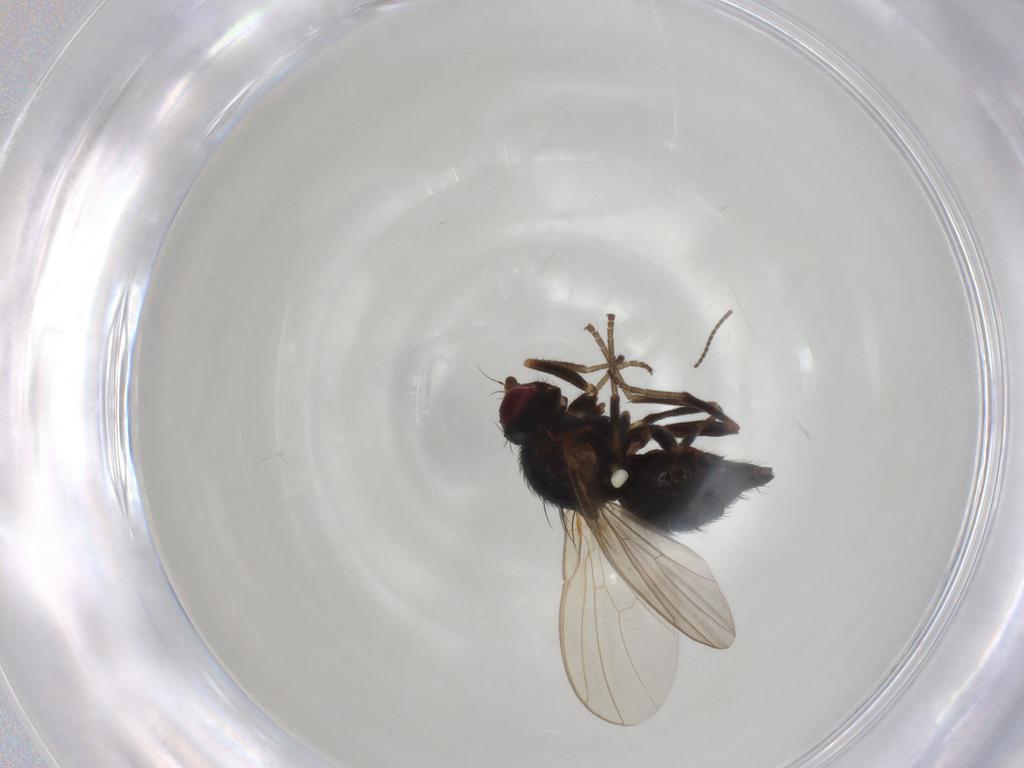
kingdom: Animalia
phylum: Arthropoda
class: Insecta
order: Diptera
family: Agromyzidae
